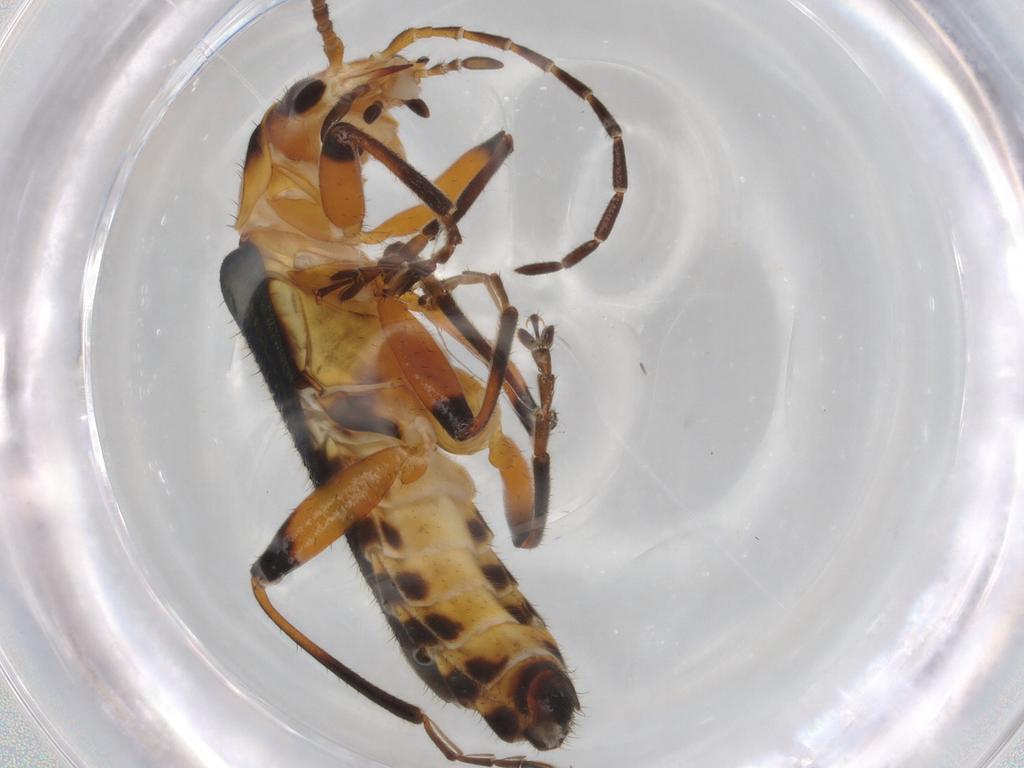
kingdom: Animalia
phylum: Arthropoda
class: Insecta
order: Coleoptera
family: Cantharidae
